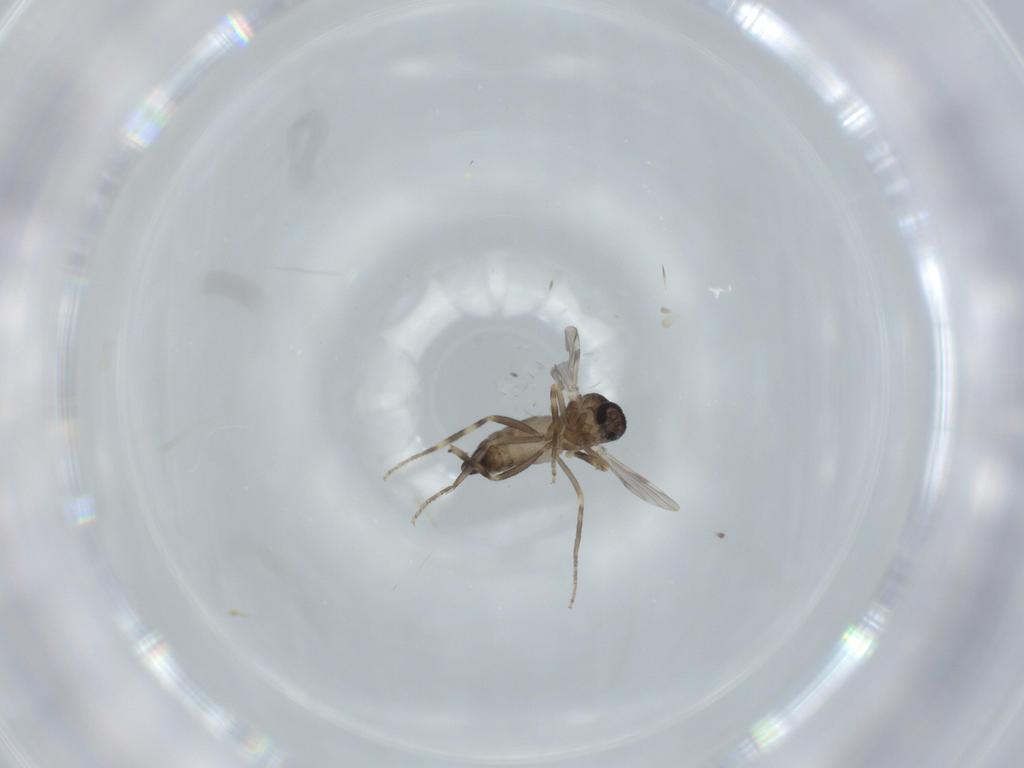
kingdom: Animalia
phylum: Arthropoda
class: Insecta
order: Diptera
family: Ceratopogonidae
